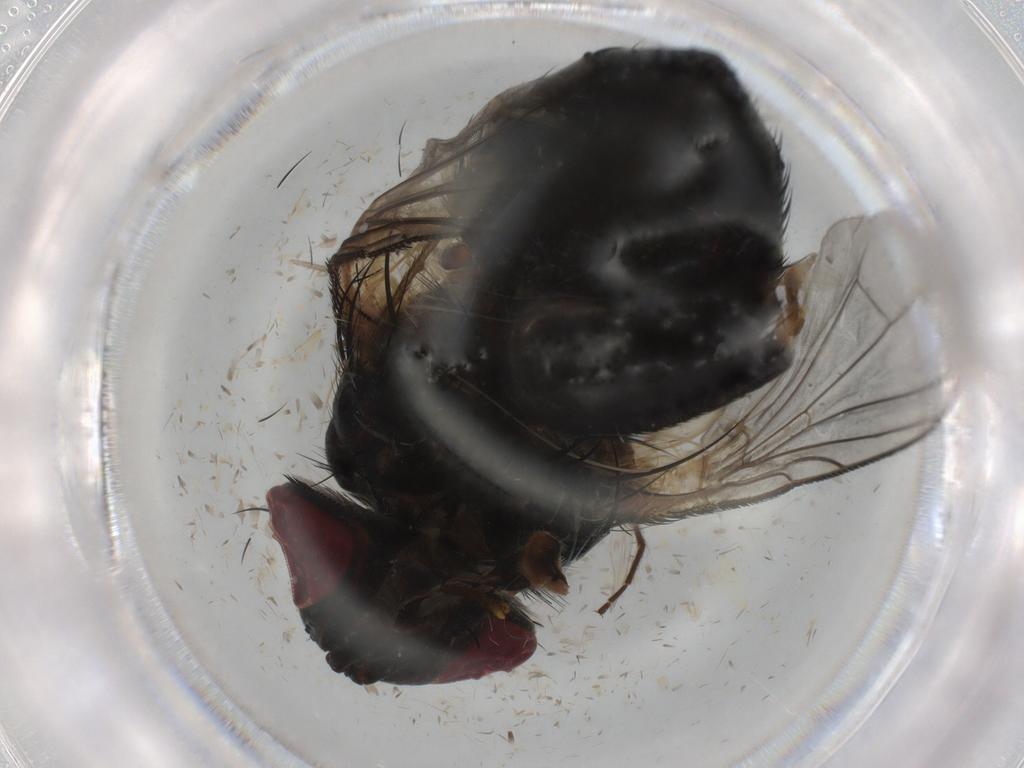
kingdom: Animalia
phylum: Arthropoda
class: Insecta
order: Diptera
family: Sciaridae
